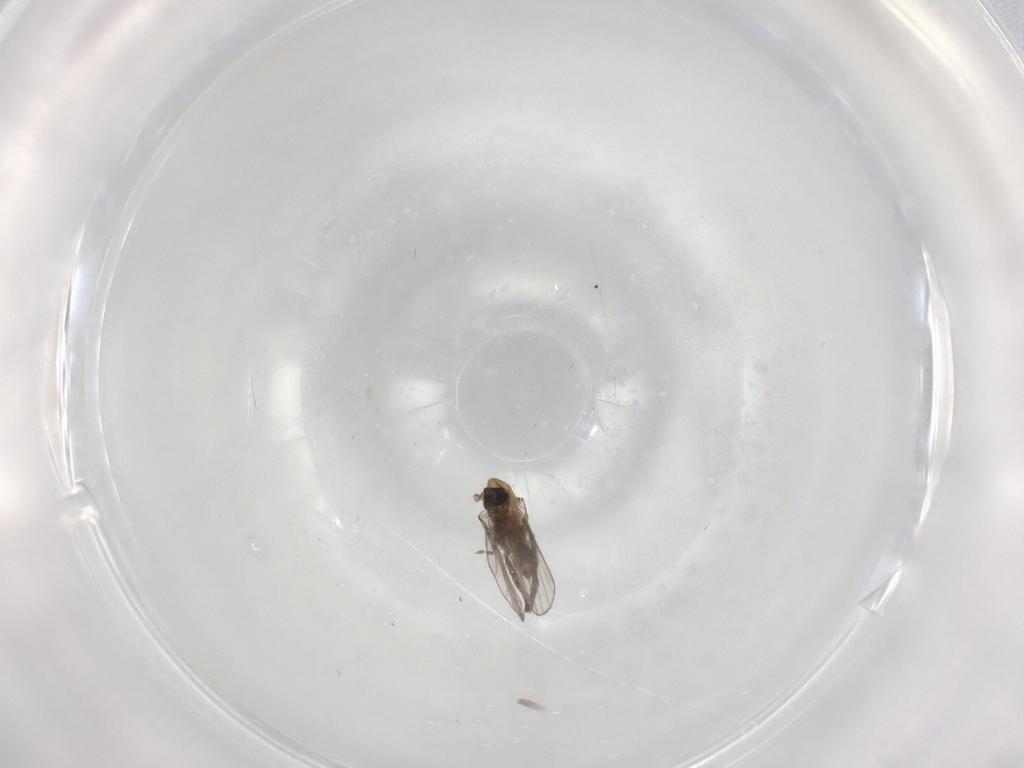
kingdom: Animalia
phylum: Arthropoda
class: Insecta
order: Diptera
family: Psychodidae
